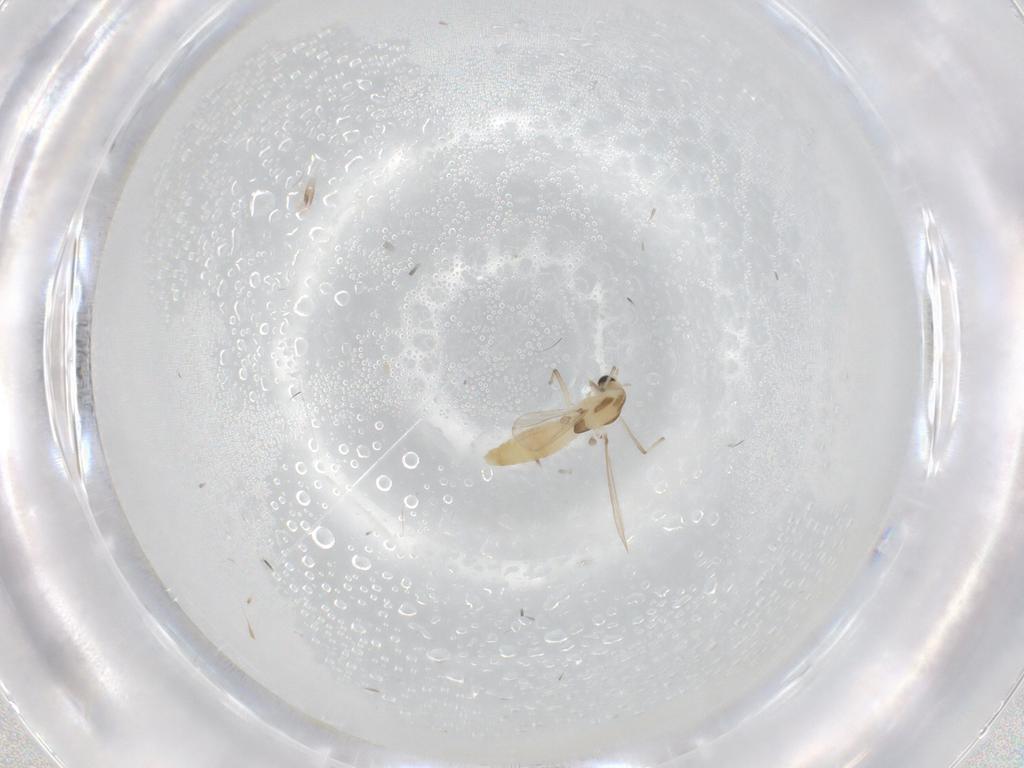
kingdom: Animalia
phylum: Arthropoda
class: Insecta
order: Diptera
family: Chironomidae
